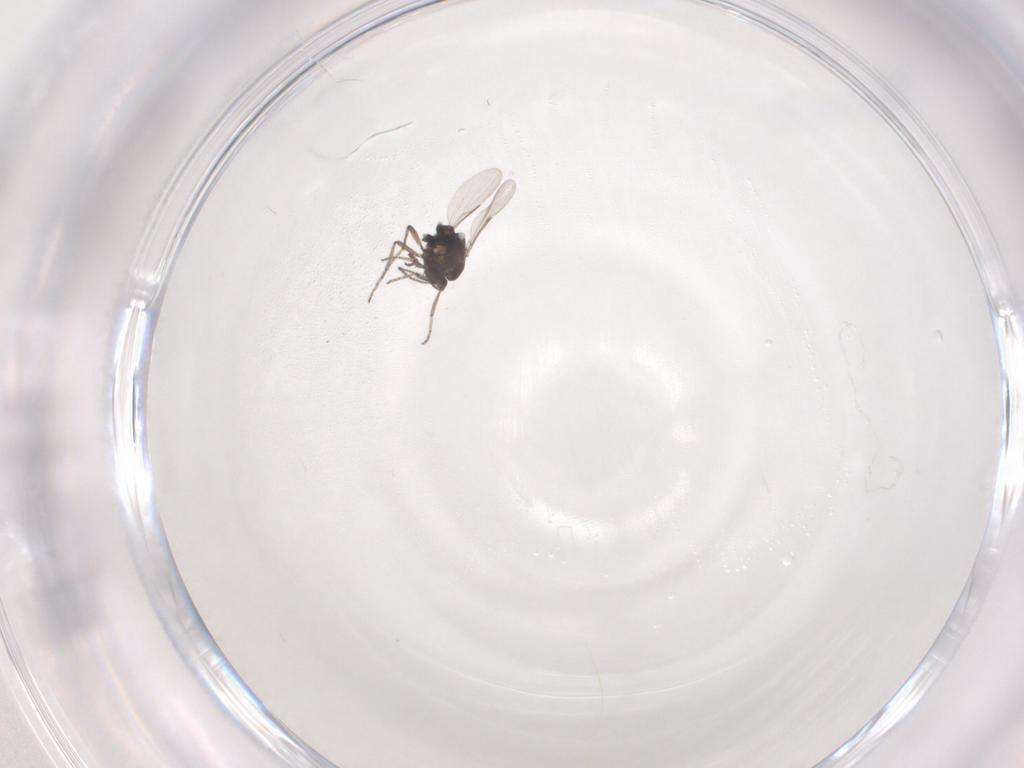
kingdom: Animalia
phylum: Arthropoda
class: Insecta
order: Diptera
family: Ceratopogonidae
